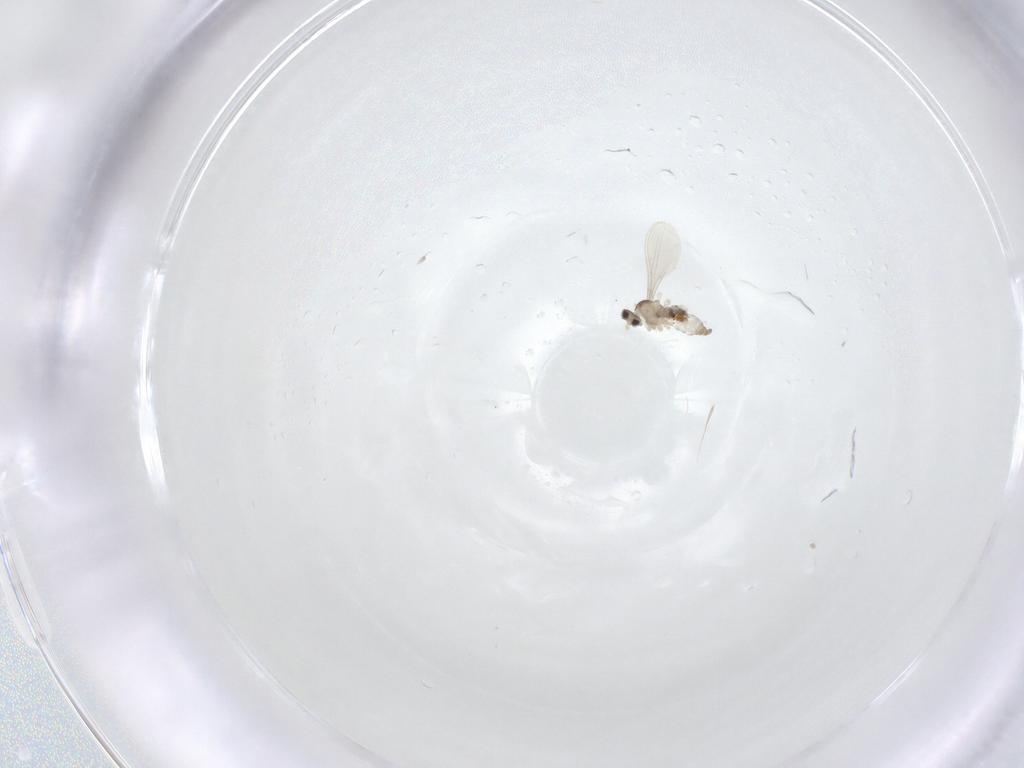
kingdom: Animalia
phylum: Arthropoda
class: Insecta
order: Diptera
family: Cecidomyiidae
